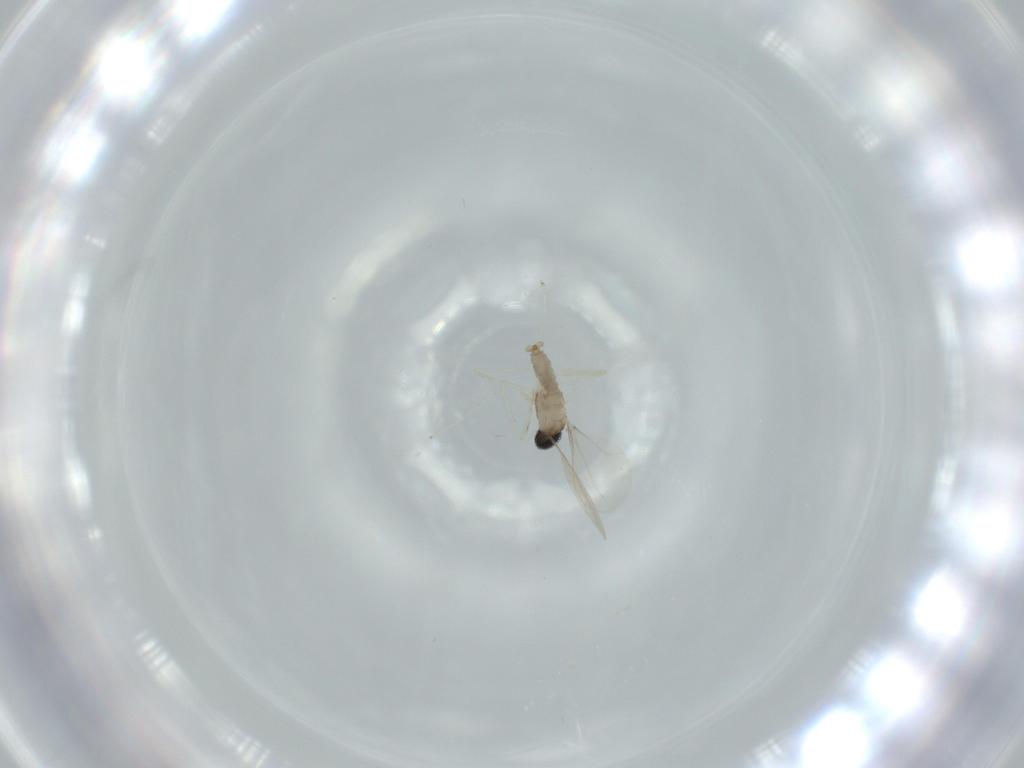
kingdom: Animalia
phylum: Arthropoda
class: Insecta
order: Diptera
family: Cecidomyiidae
